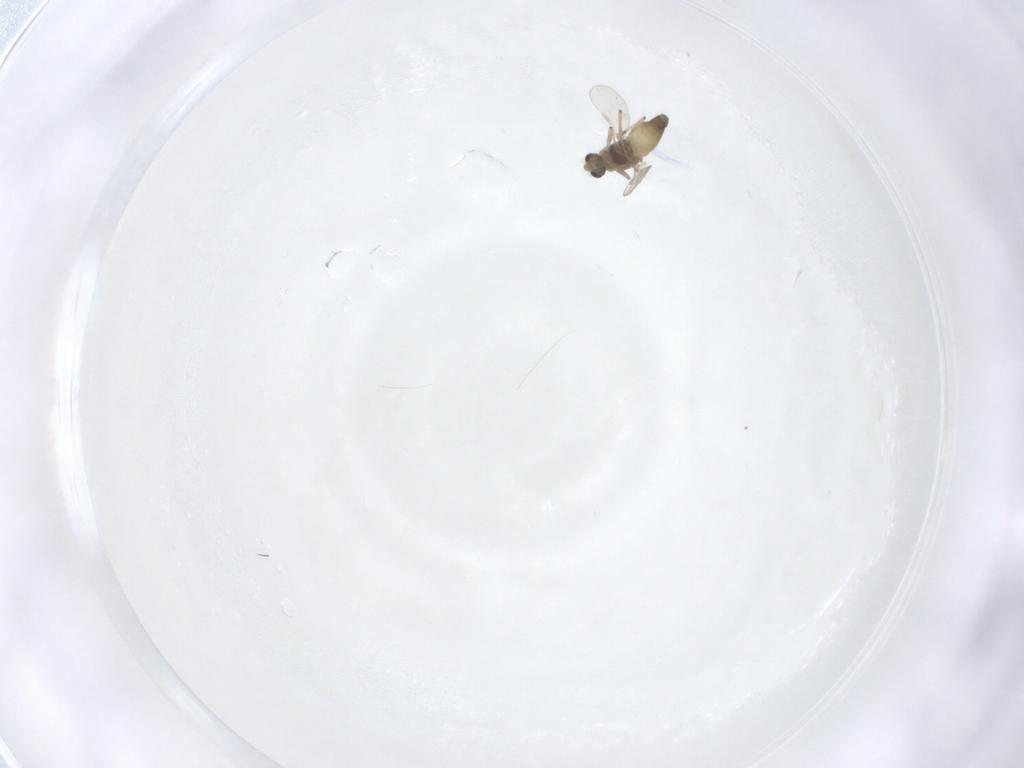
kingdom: Animalia
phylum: Arthropoda
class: Insecta
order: Diptera
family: Chironomidae
